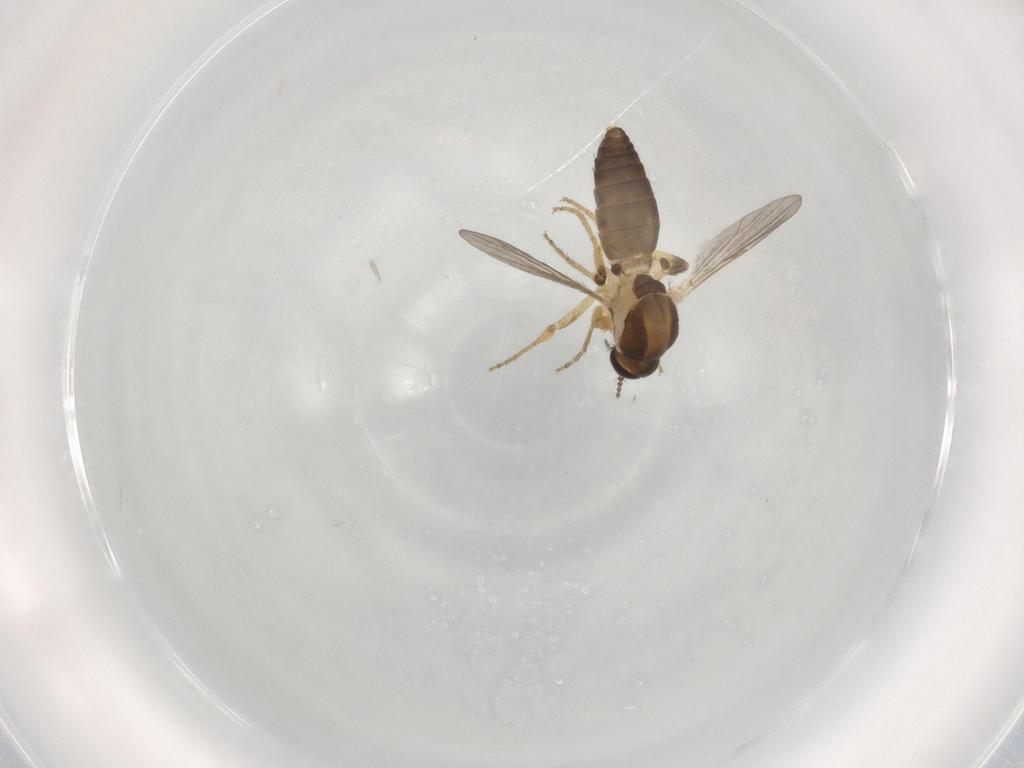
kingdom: Animalia
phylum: Arthropoda
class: Insecta
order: Diptera
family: Ceratopogonidae
